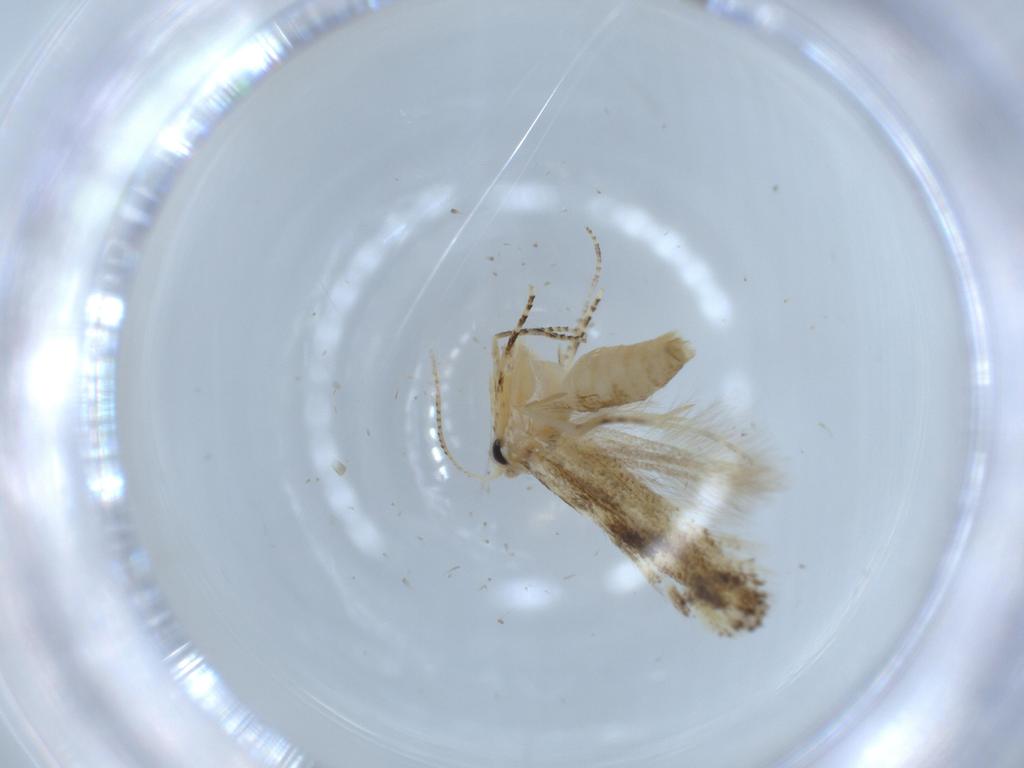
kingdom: Animalia
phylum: Arthropoda
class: Insecta
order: Lepidoptera
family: Bucculatricidae
